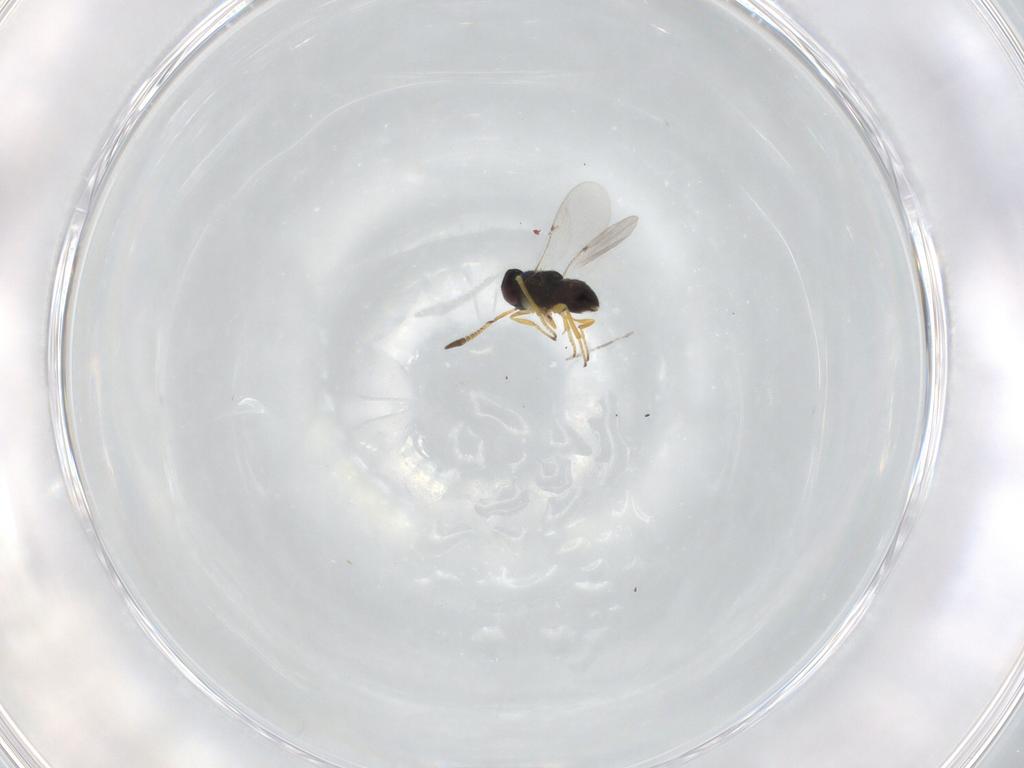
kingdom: Animalia
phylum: Arthropoda
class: Insecta
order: Hymenoptera
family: Encyrtidae
